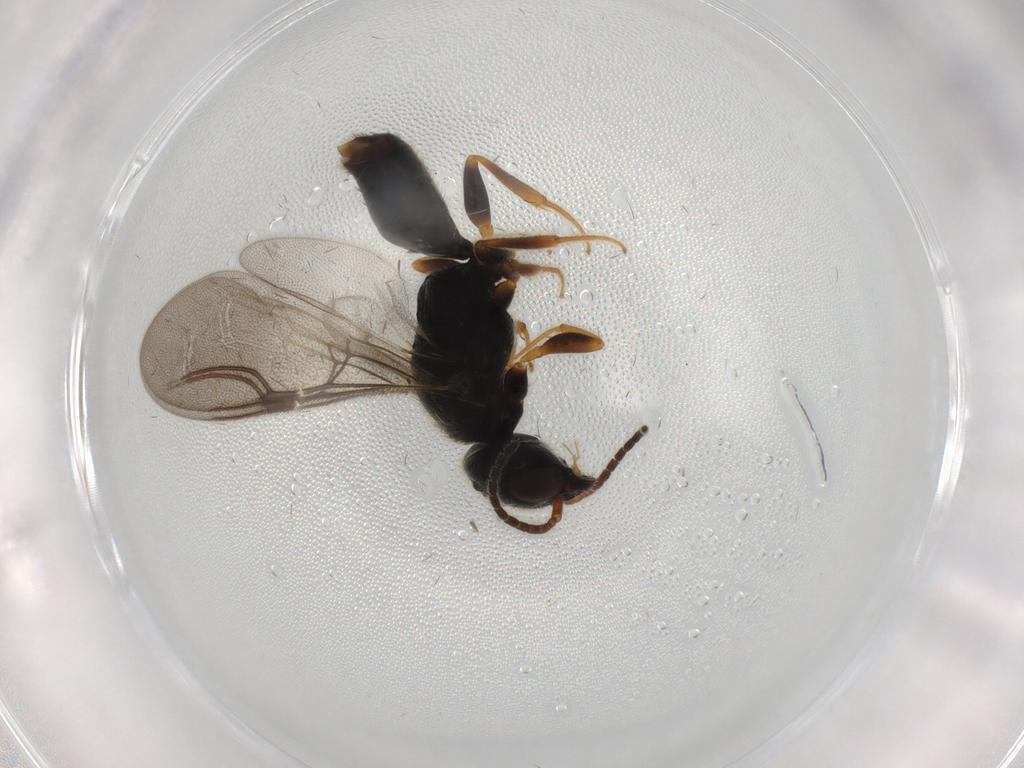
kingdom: Animalia
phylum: Arthropoda
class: Insecta
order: Hymenoptera
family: Bethylidae
